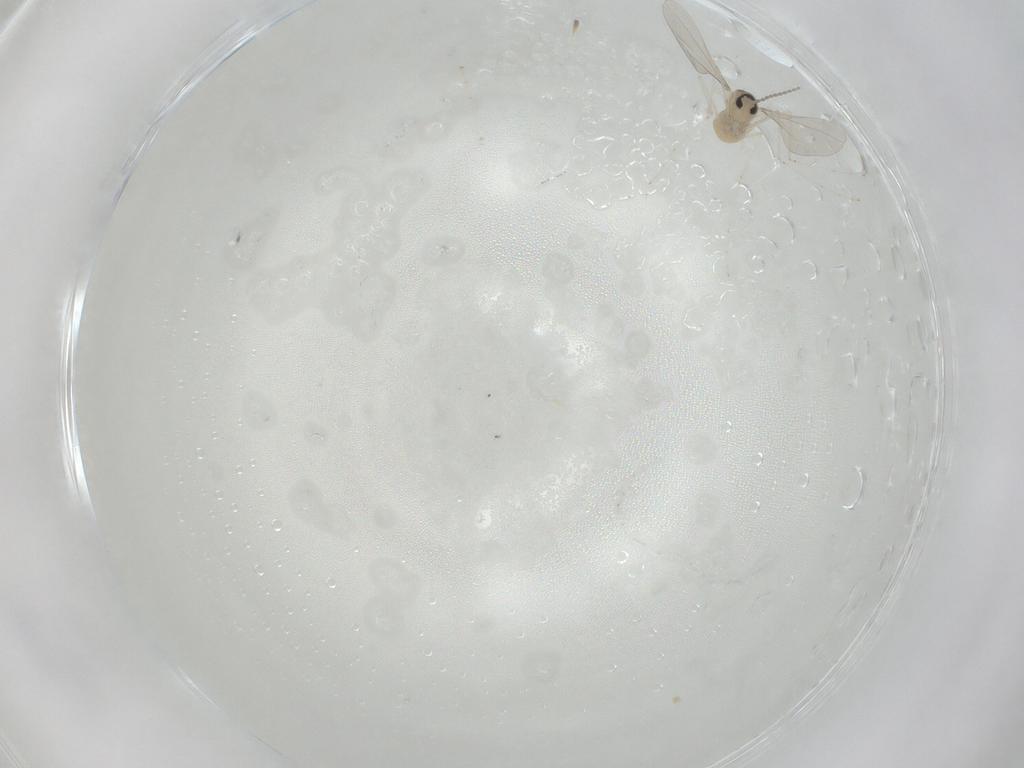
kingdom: Animalia
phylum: Arthropoda
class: Insecta
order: Diptera
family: Cecidomyiidae
